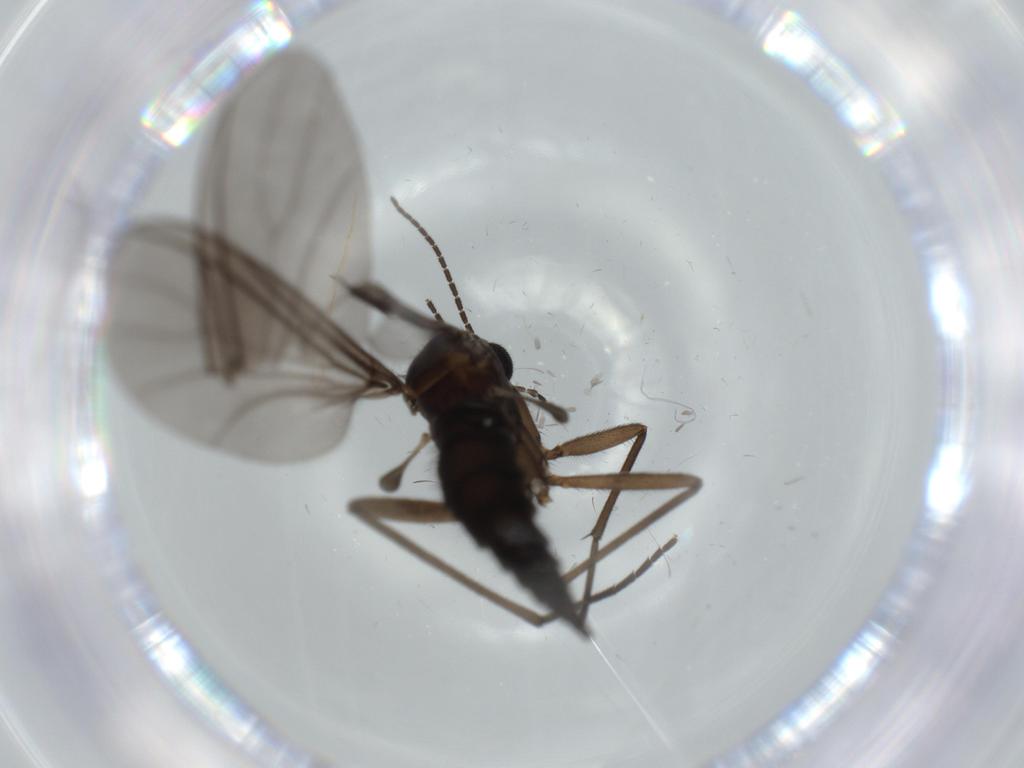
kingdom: Animalia
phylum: Arthropoda
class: Insecta
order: Diptera
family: Sciaridae
